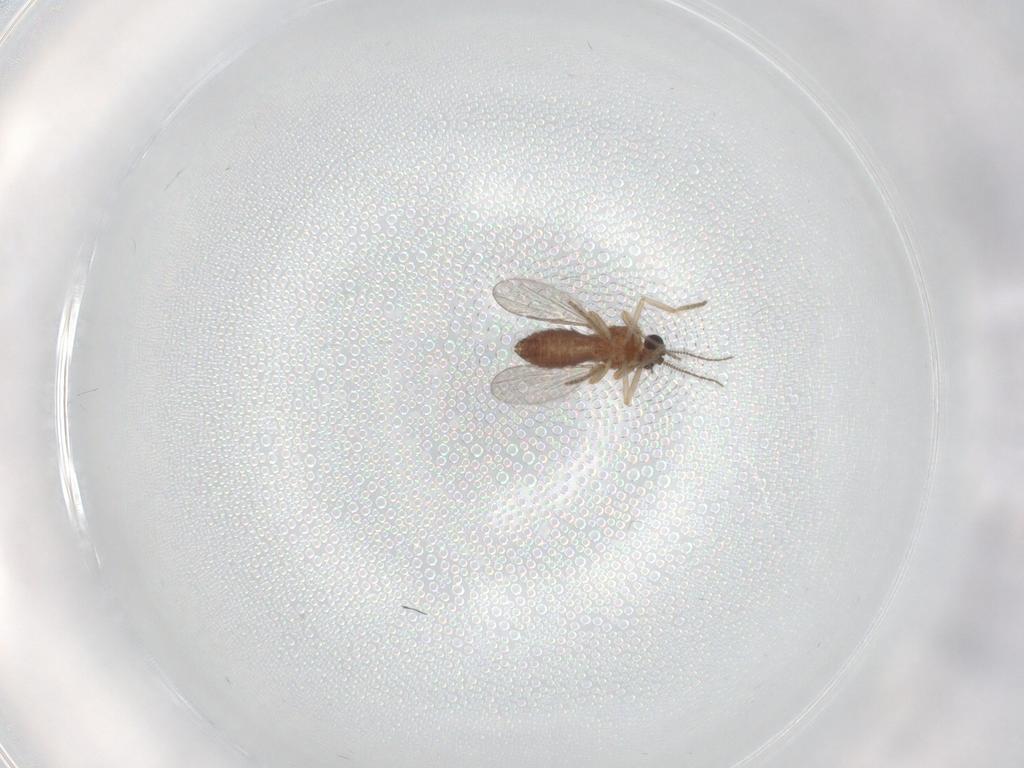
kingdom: Animalia
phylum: Arthropoda
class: Insecta
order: Diptera
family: Ceratopogonidae
